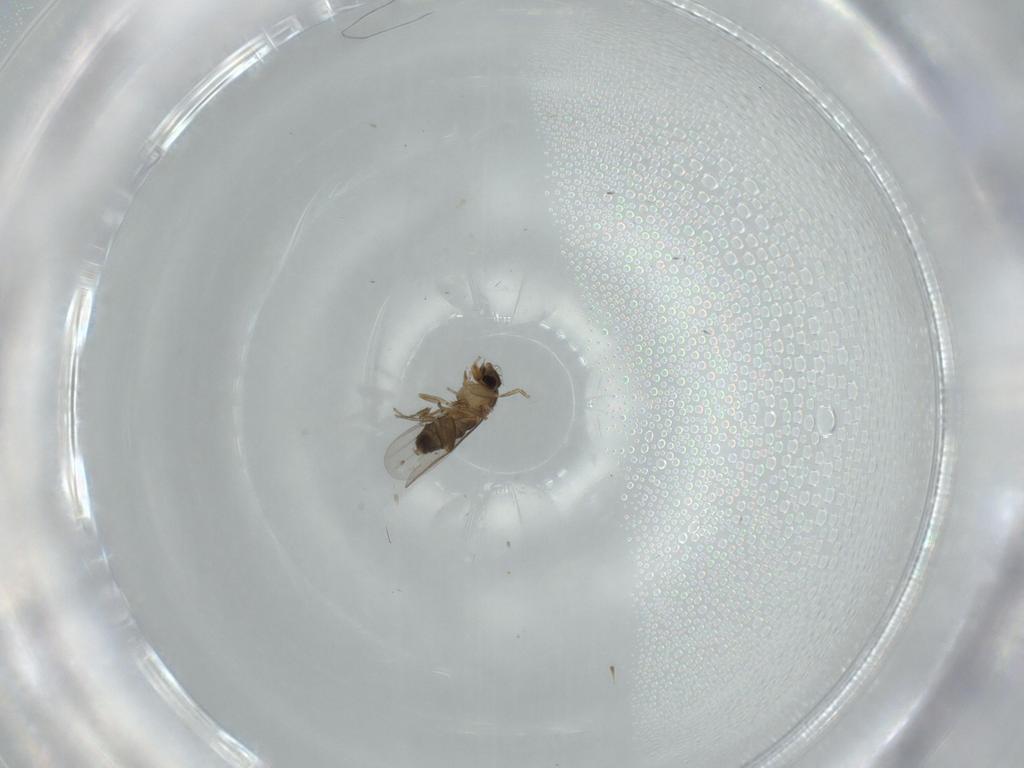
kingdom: Animalia
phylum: Arthropoda
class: Insecta
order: Diptera
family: Phoridae
